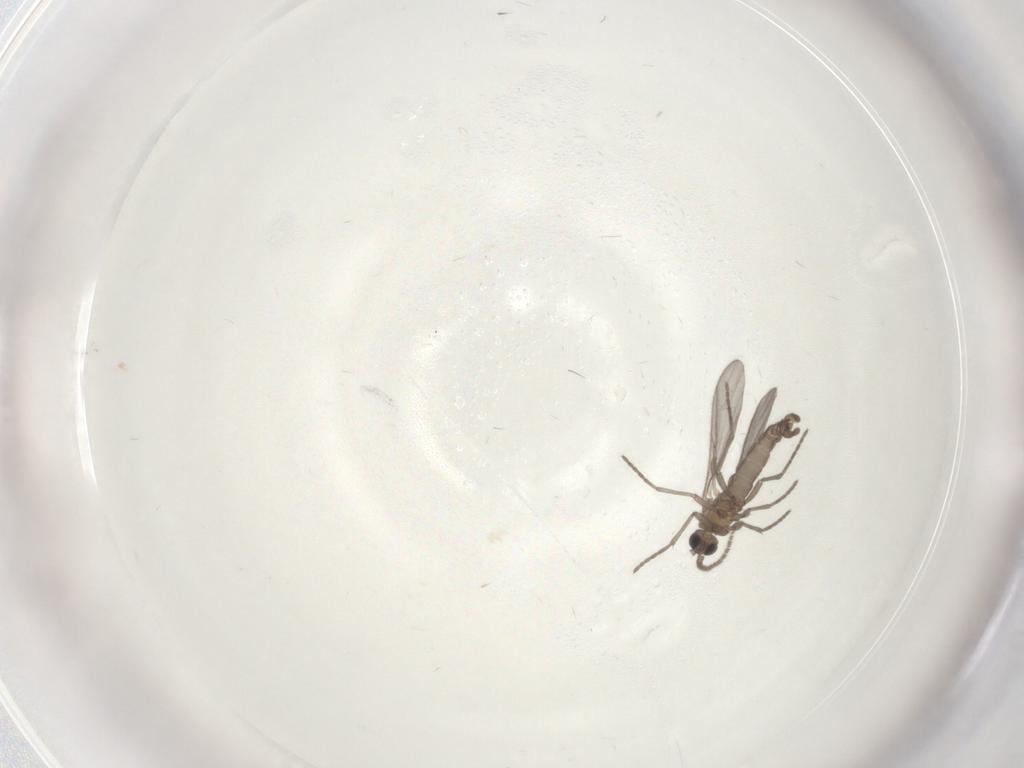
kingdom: Animalia
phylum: Arthropoda
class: Insecta
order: Diptera
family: Sciaridae
